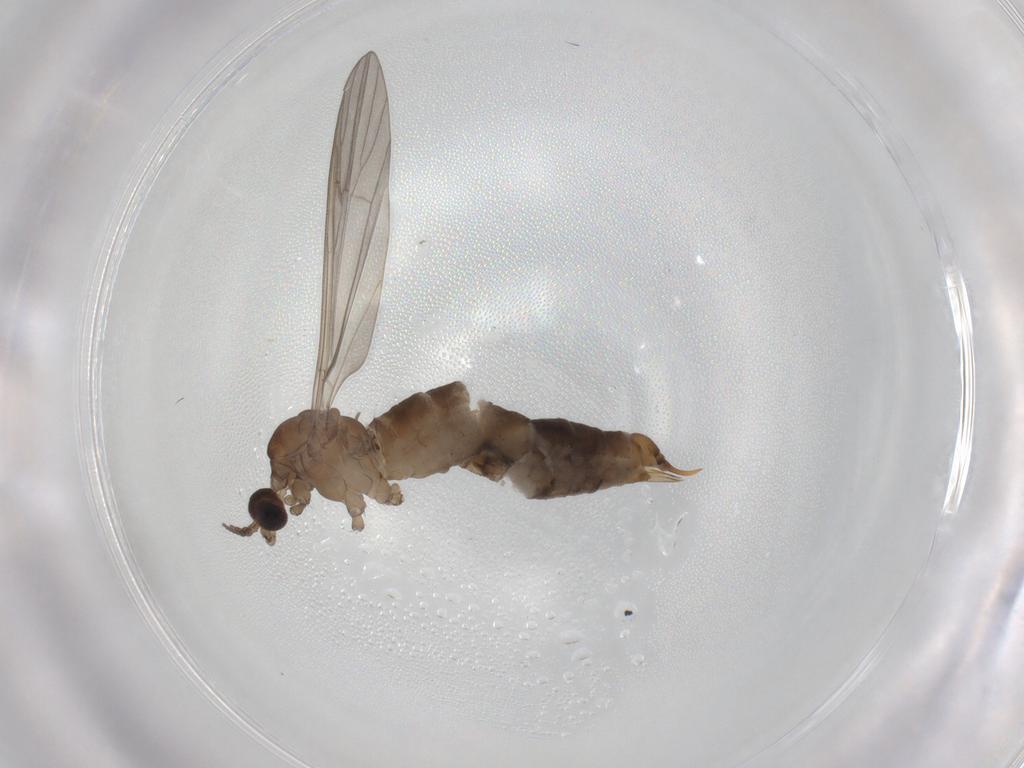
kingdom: Animalia
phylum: Arthropoda
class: Insecta
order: Diptera
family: Limoniidae
